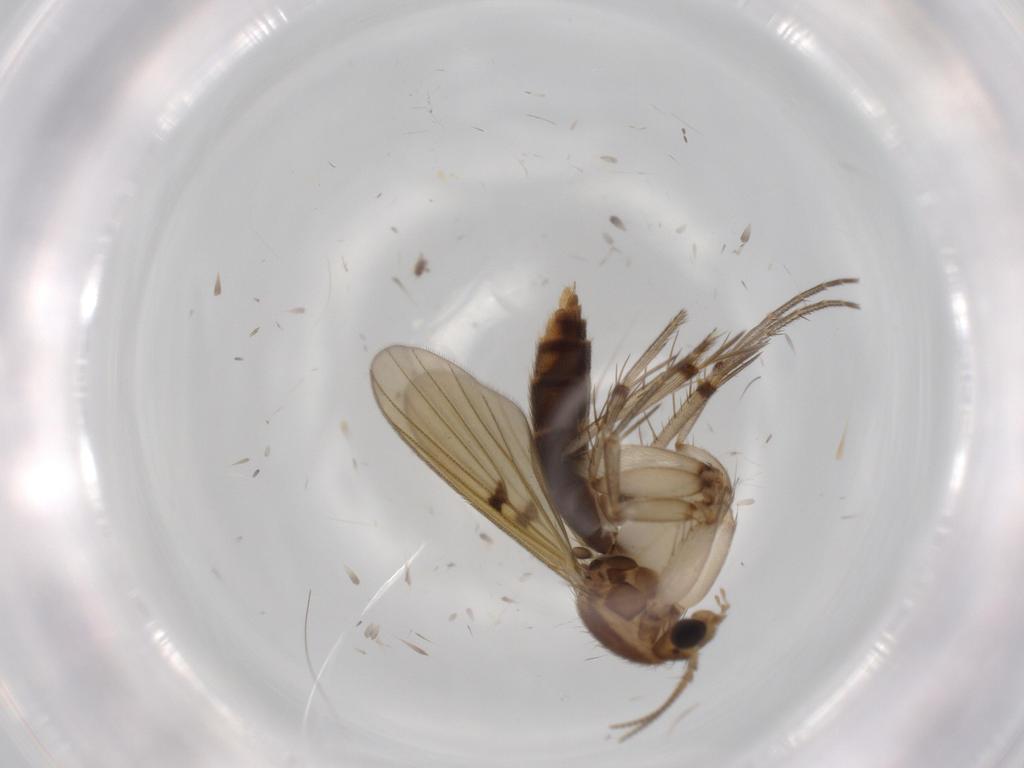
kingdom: Animalia
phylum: Arthropoda
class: Insecta
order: Diptera
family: Mycetophilidae
